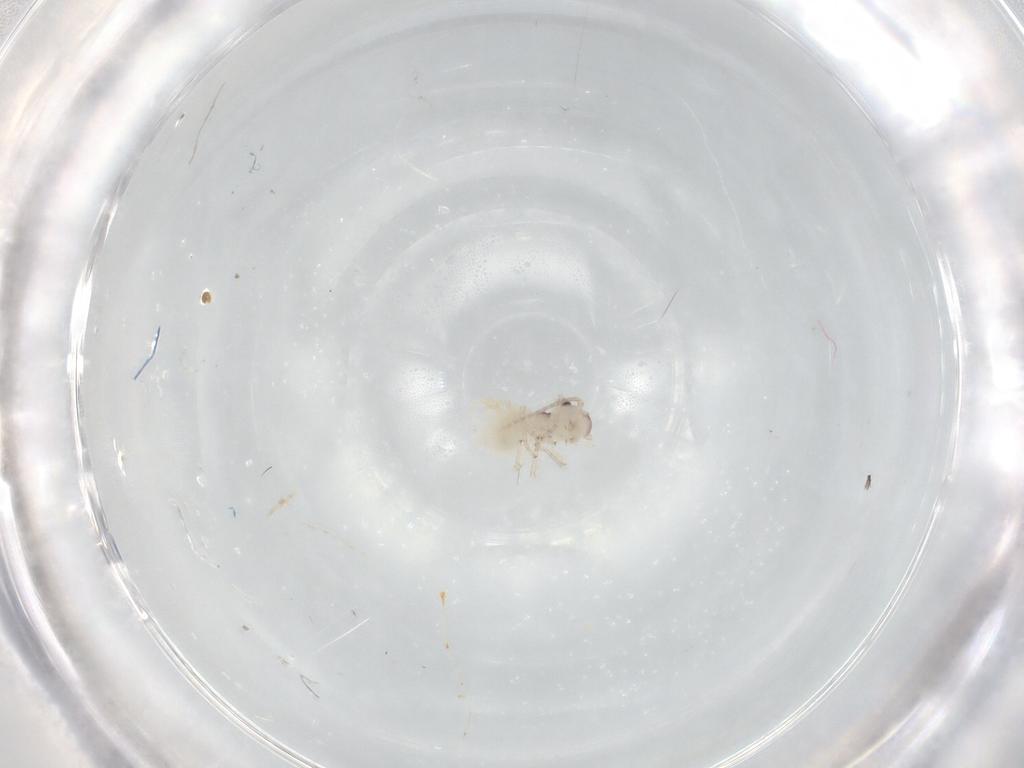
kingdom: Animalia
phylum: Arthropoda
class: Insecta
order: Psocodea
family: Amphipsocidae
